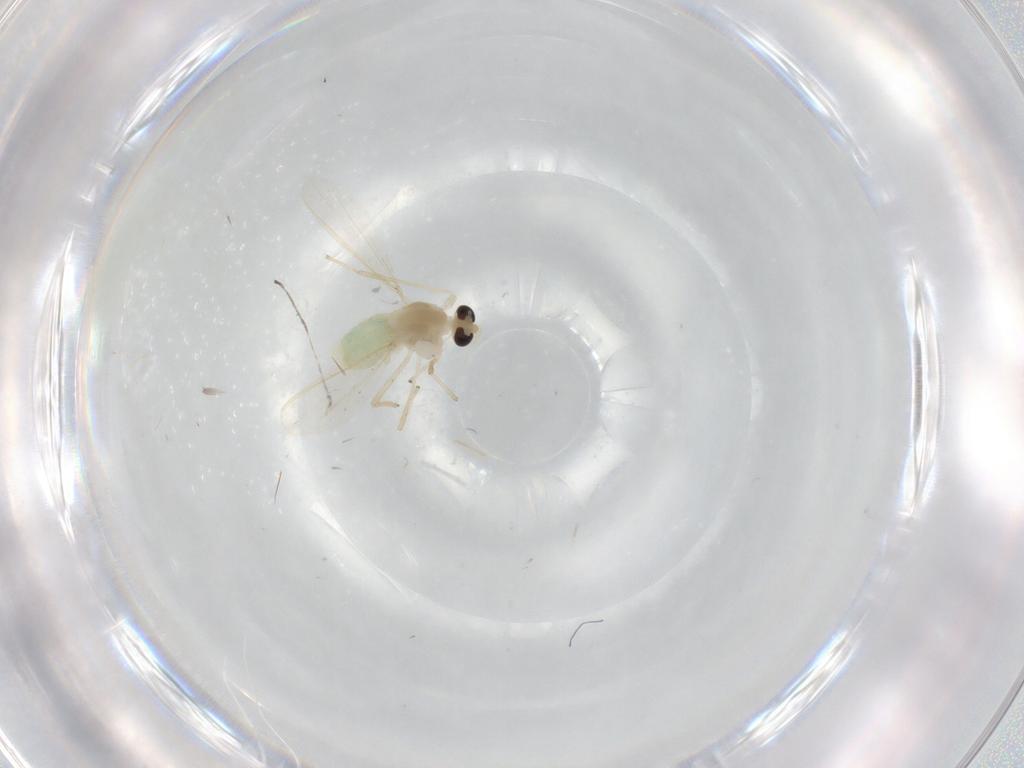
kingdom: Animalia
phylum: Arthropoda
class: Insecta
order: Diptera
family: Chironomidae
